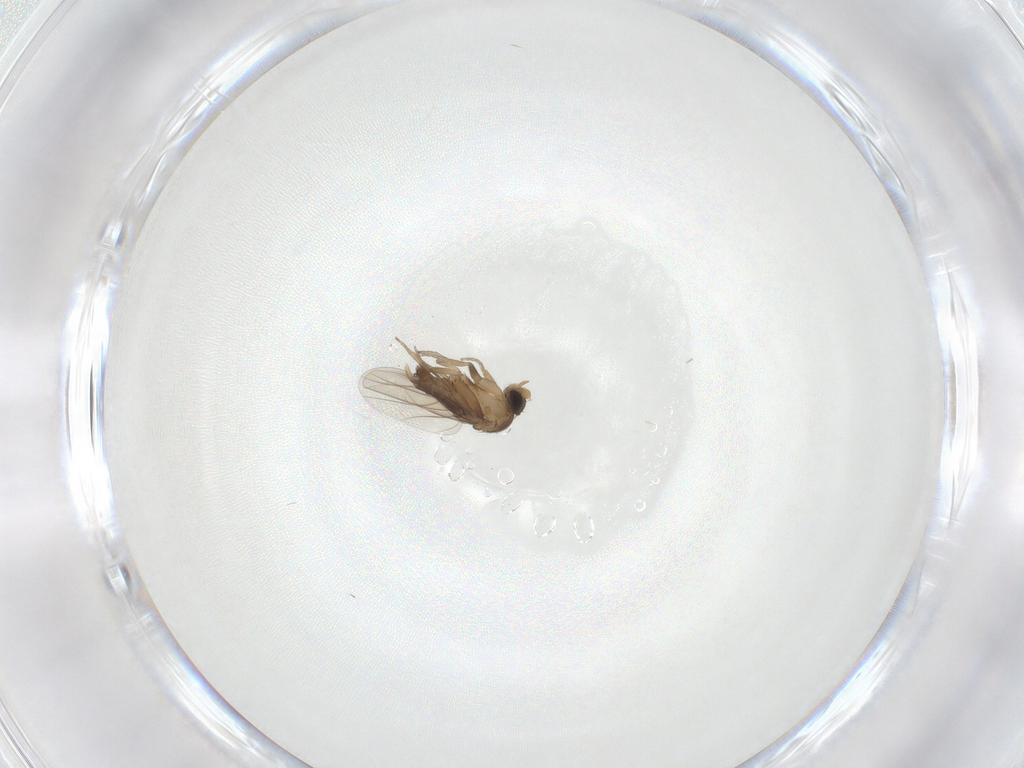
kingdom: Animalia
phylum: Arthropoda
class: Insecta
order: Diptera
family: Phoridae
